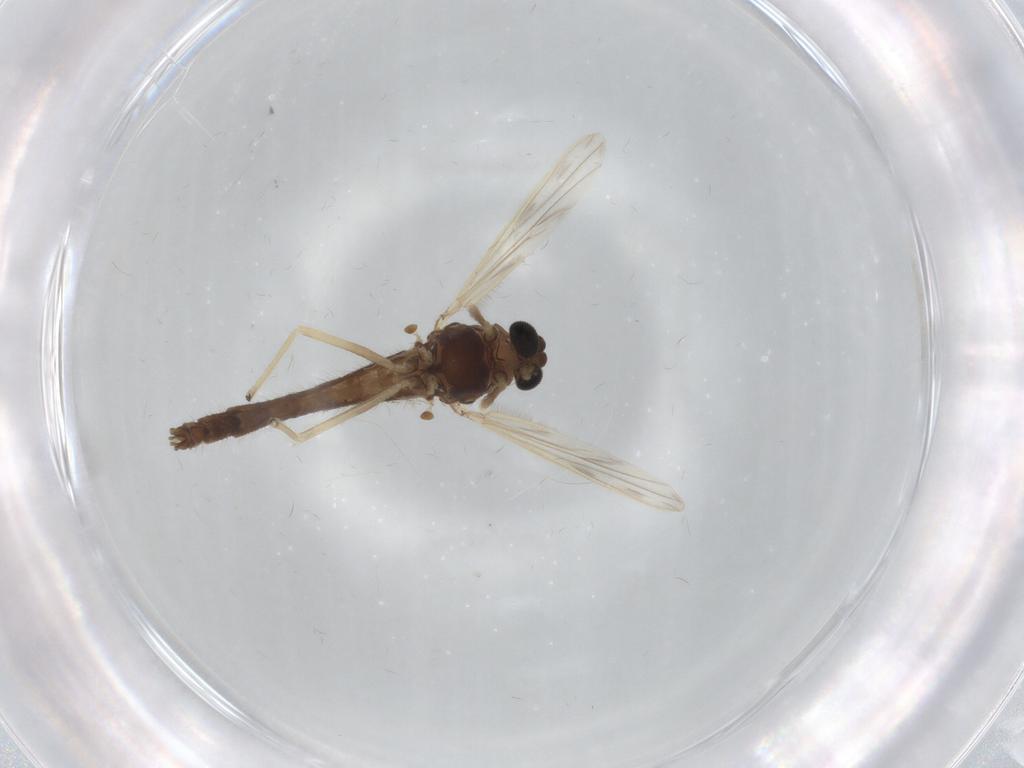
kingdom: Animalia
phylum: Arthropoda
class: Insecta
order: Diptera
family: Chironomidae
